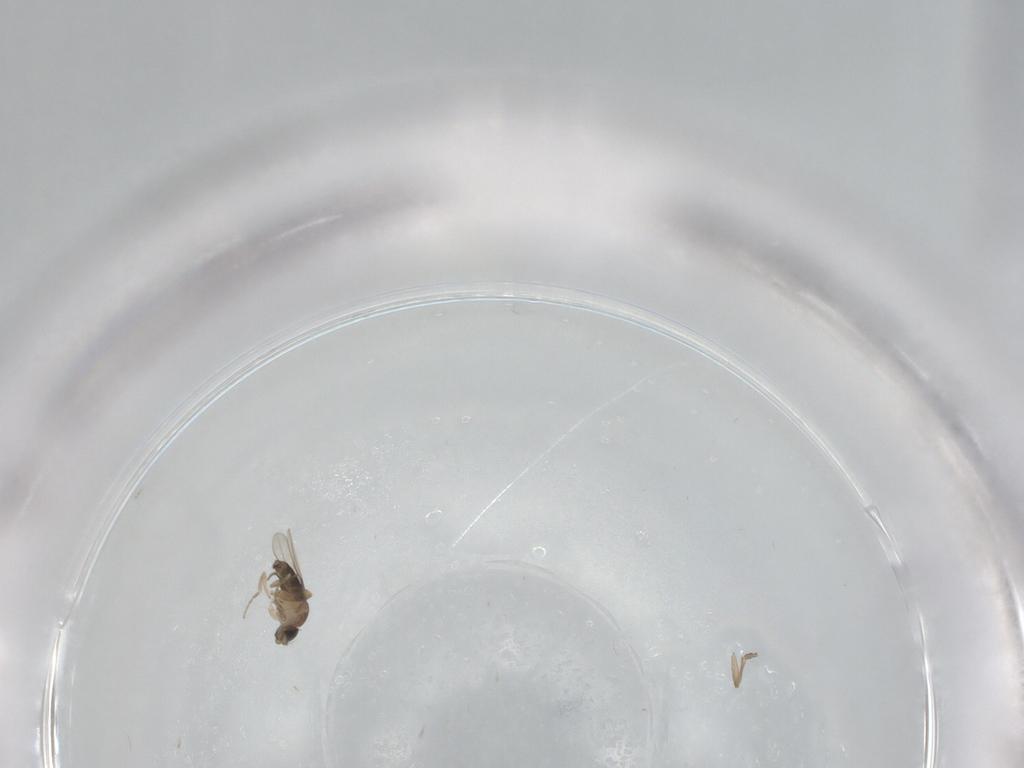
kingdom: Animalia
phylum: Arthropoda
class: Insecta
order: Diptera
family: Phoridae
